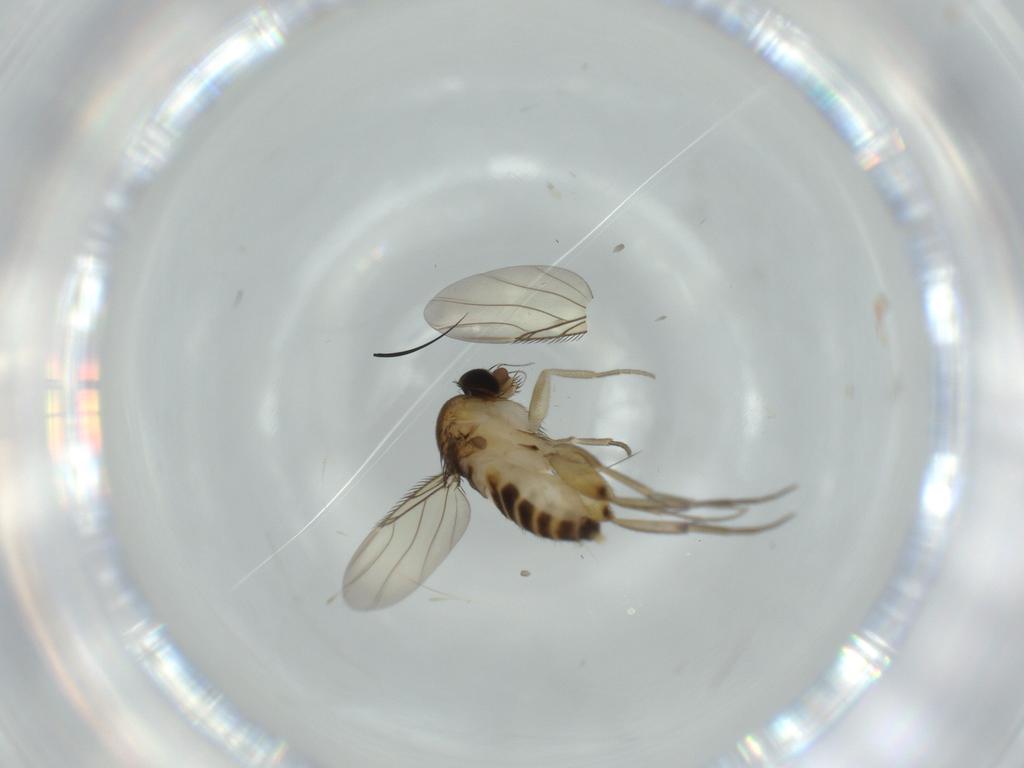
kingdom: Animalia
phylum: Arthropoda
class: Insecta
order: Diptera
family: Phoridae
